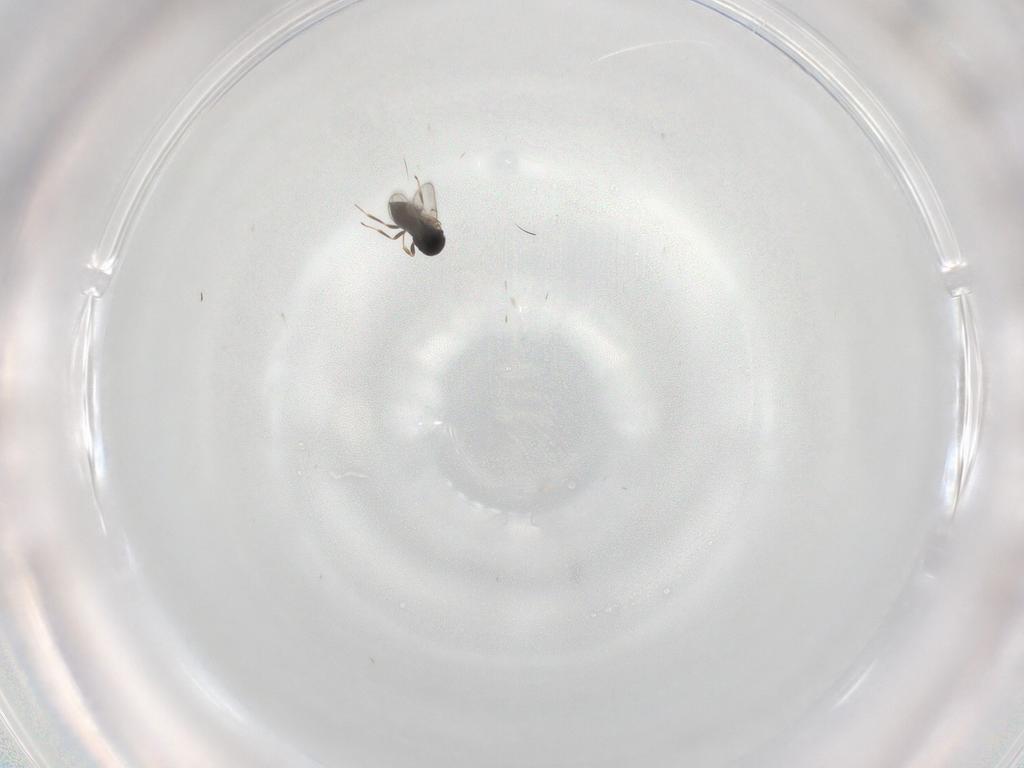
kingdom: Animalia
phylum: Arthropoda
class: Insecta
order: Hymenoptera
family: Scelionidae
